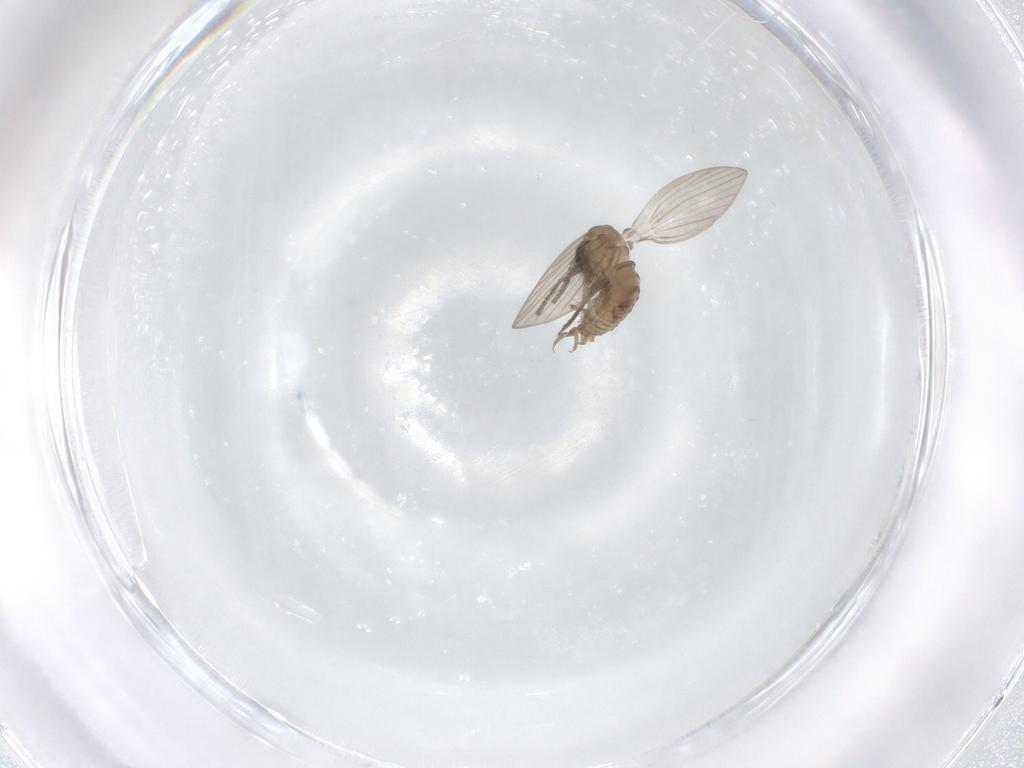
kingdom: Animalia
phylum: Arthropoda
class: Insecta
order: Diptera
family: Psychodidae
